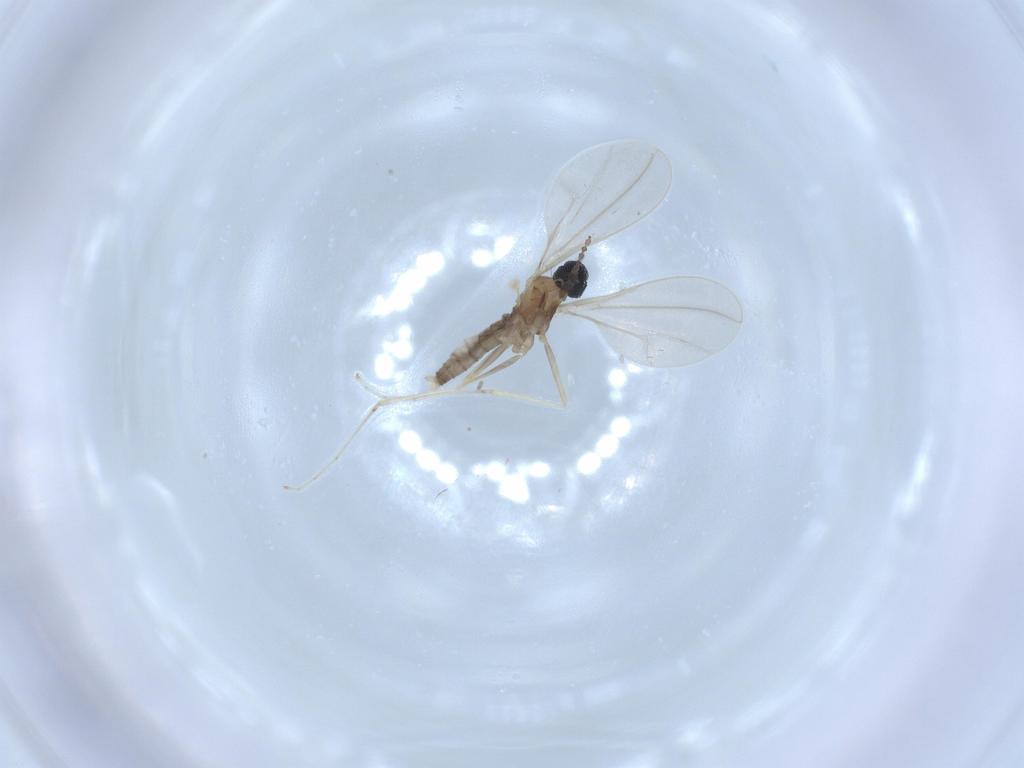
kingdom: Animalia
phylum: Arthropoda
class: Insecta
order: Diptera
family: Cecidomyiidae
